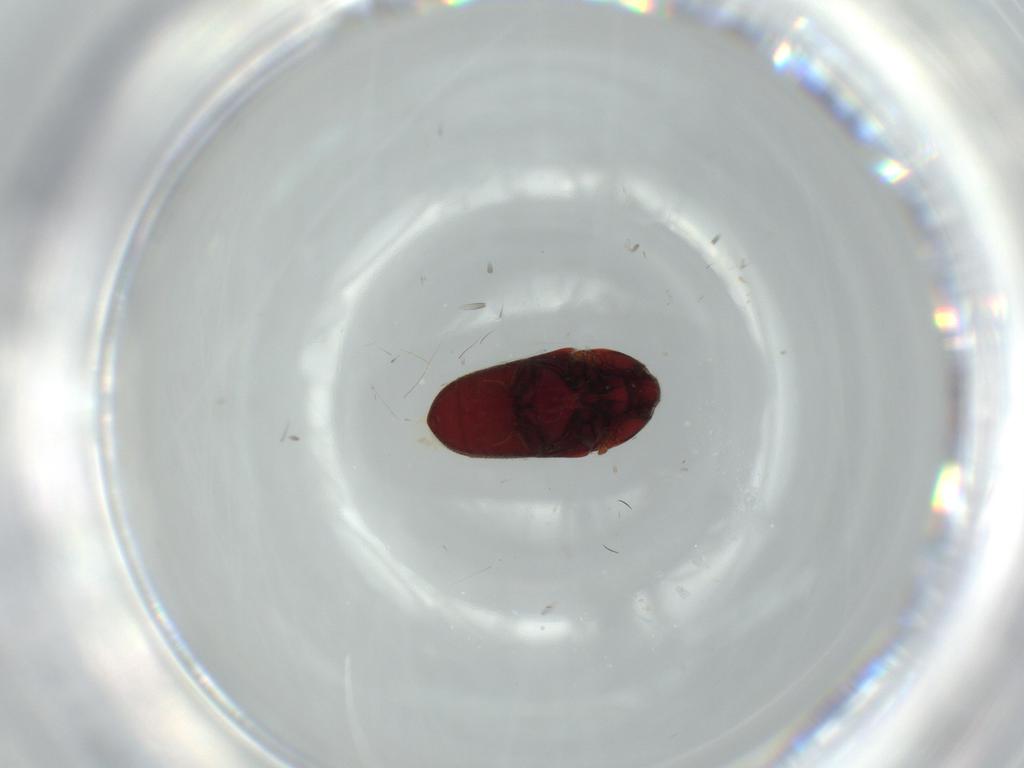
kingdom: Animalia
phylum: Arthropoda
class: Insecta
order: Coleoptera
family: Throscidae
